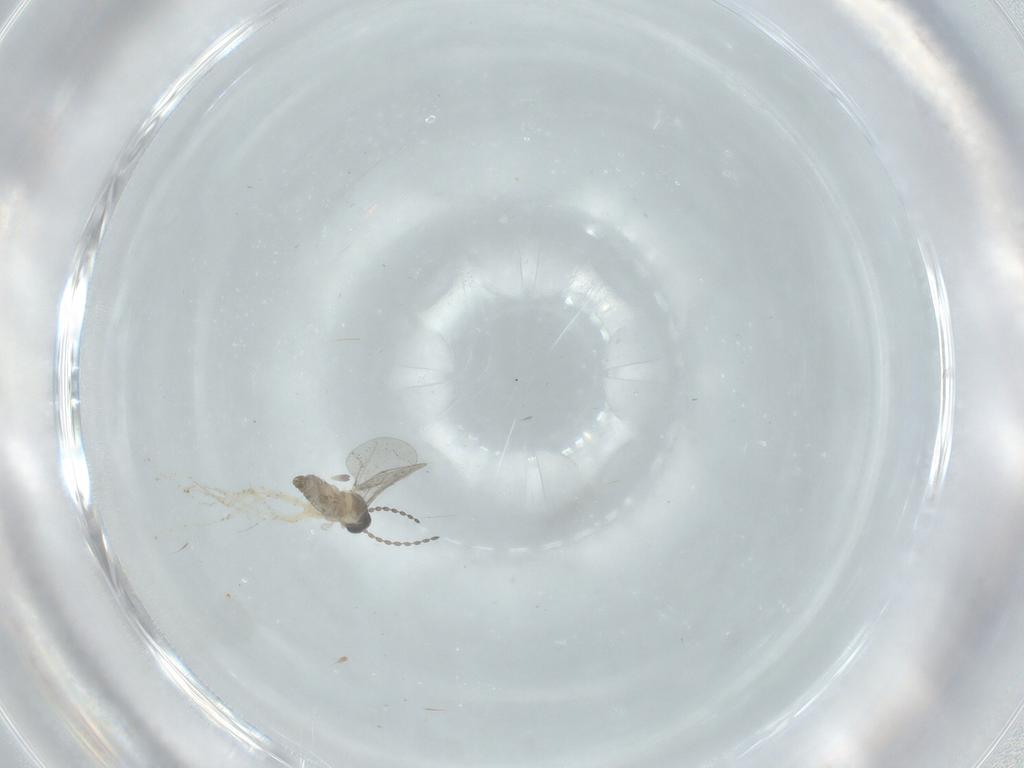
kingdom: Animalia
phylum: Arthropoda
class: Insecta
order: Diptera
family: Cecidomyiidae
